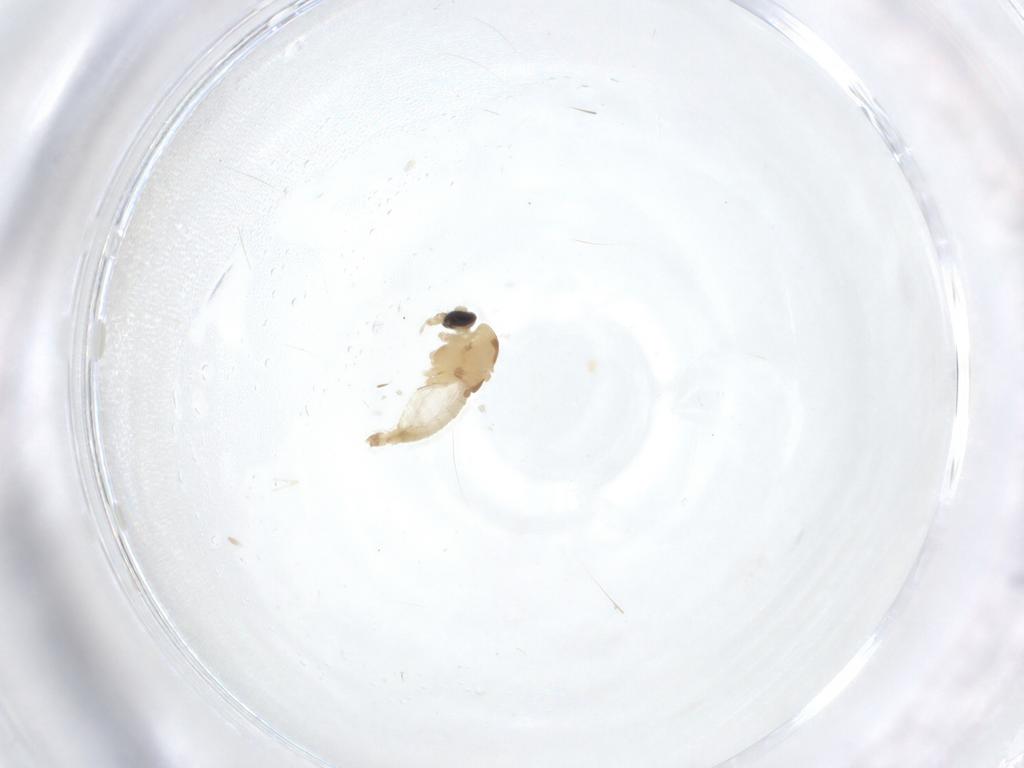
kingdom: Animalia
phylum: Arthropoda
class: Insecta
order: Diptera
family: Chironomidae
